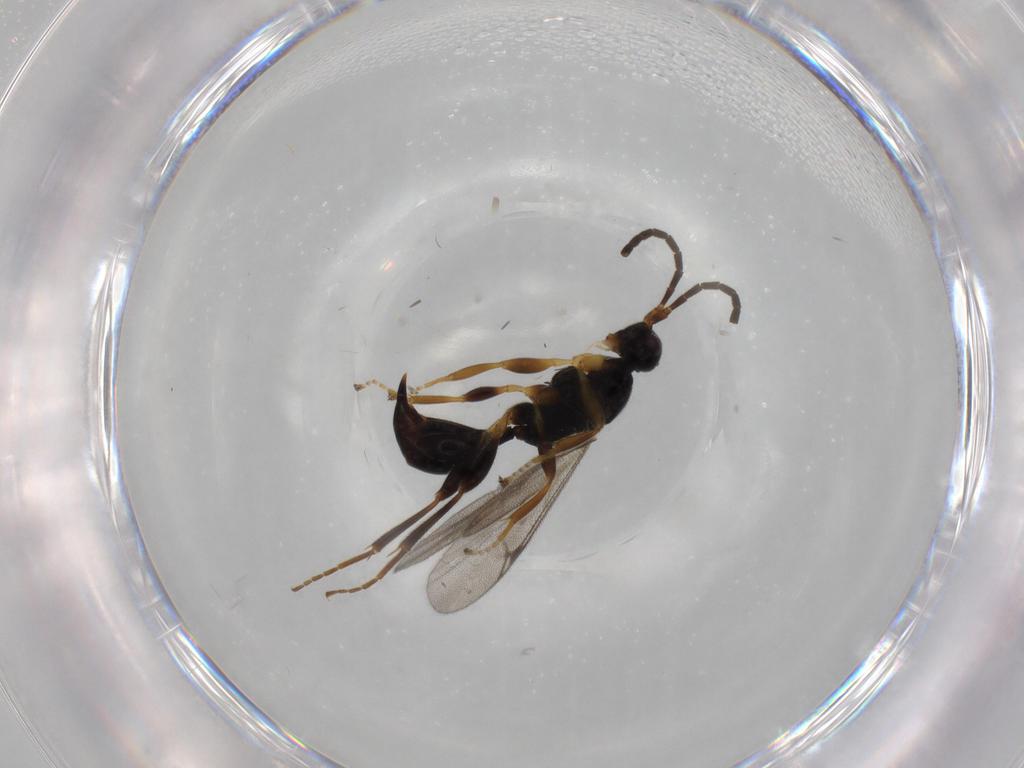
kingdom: Animalia
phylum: Arthropoda
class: Insecta
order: Hymenoptera
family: Proctotrupidae
